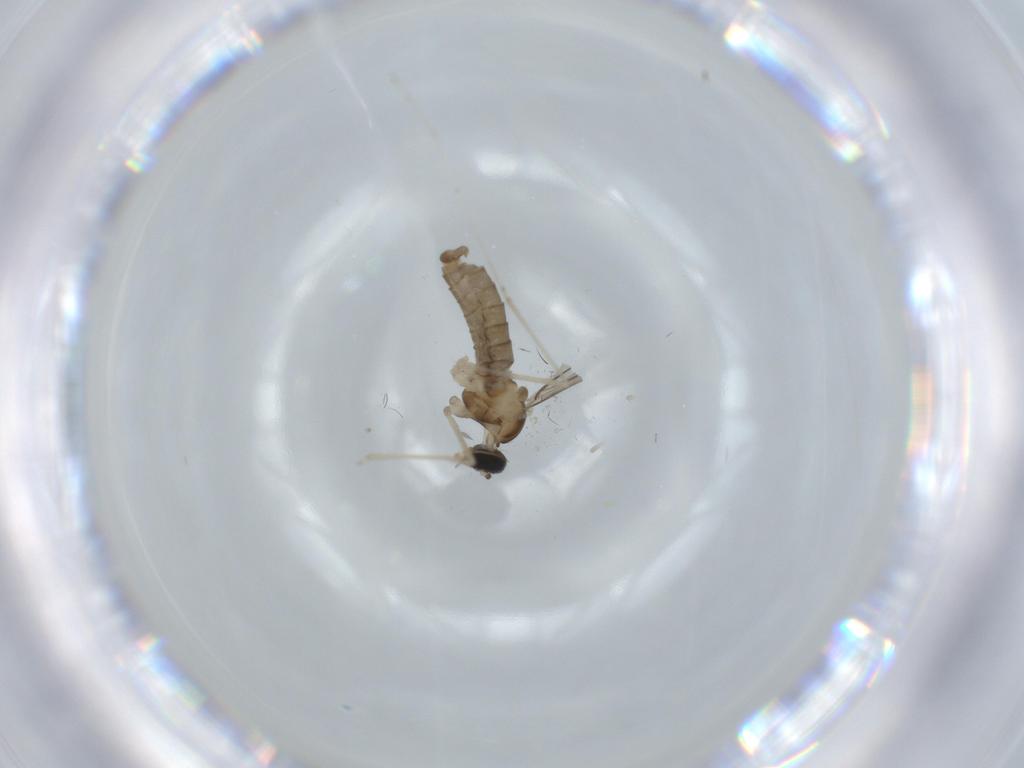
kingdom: Animalia
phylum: Arthropoda
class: Insecta
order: Diptera
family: Cecidomyiidae
